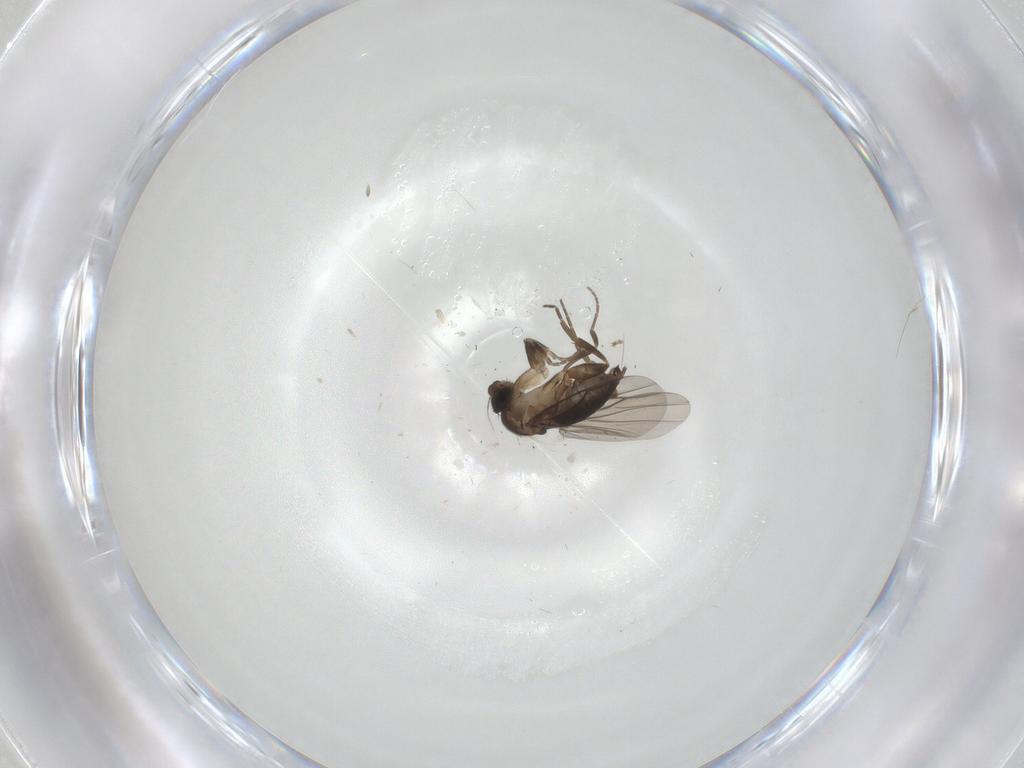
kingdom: Animalia
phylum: Arthropoda
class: Insecta
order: Diptera
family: Phoridae
